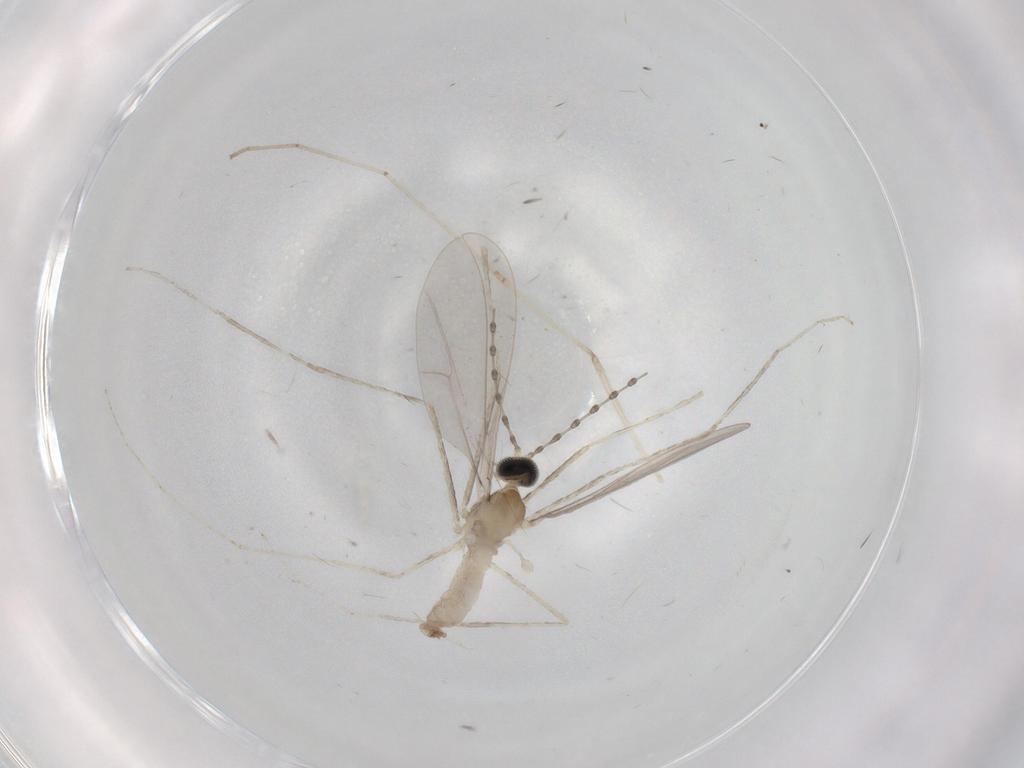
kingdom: Animalia
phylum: Arthropoda
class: Insecta
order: Diptera
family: Cecidomyiidae
